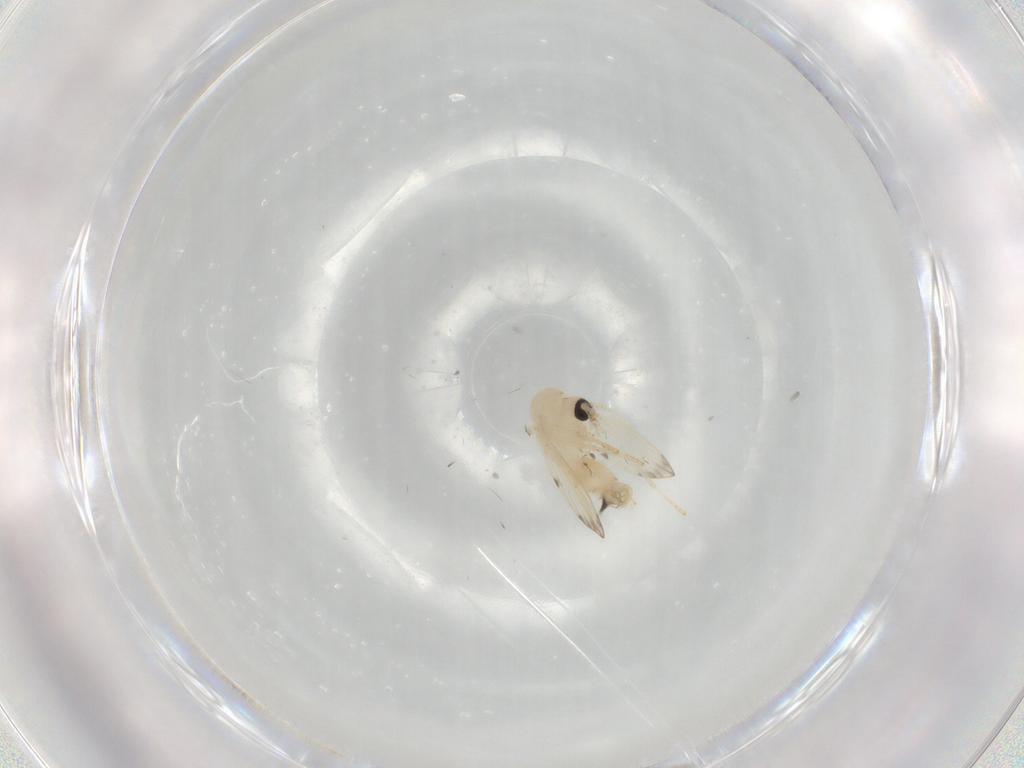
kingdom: Animalia
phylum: Arthropoda
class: Insecta
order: Diptera
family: Psychodidae
